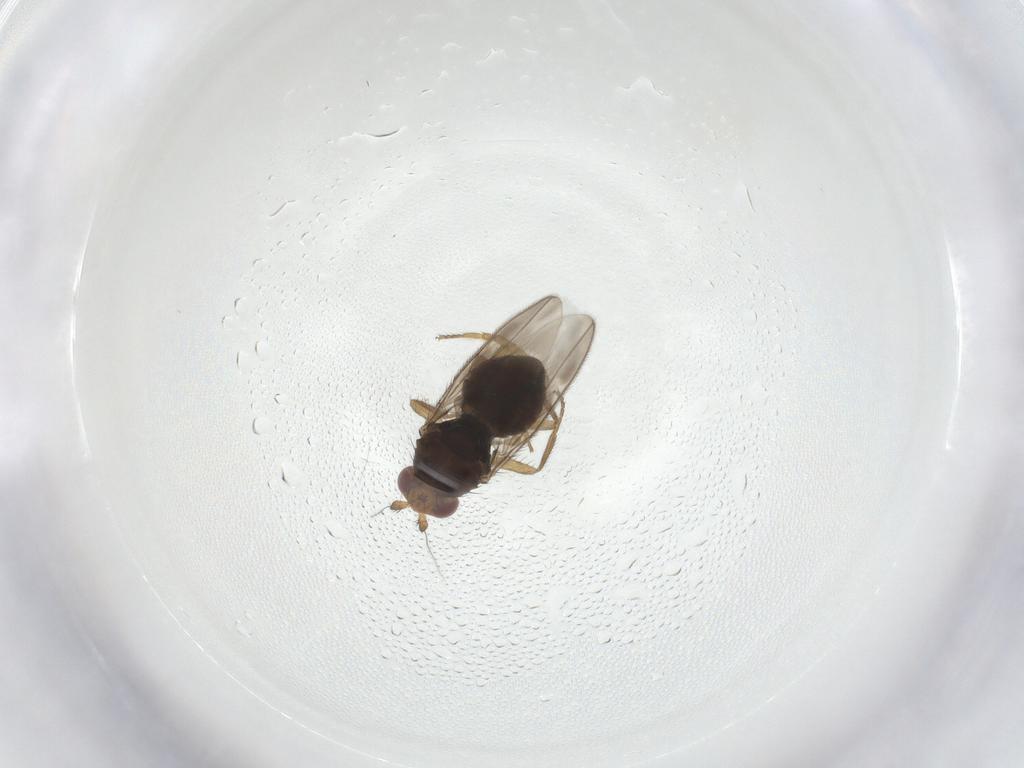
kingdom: Animalia
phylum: Arthropoda
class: Insecta
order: Diptera
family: Sphaeroceridae
